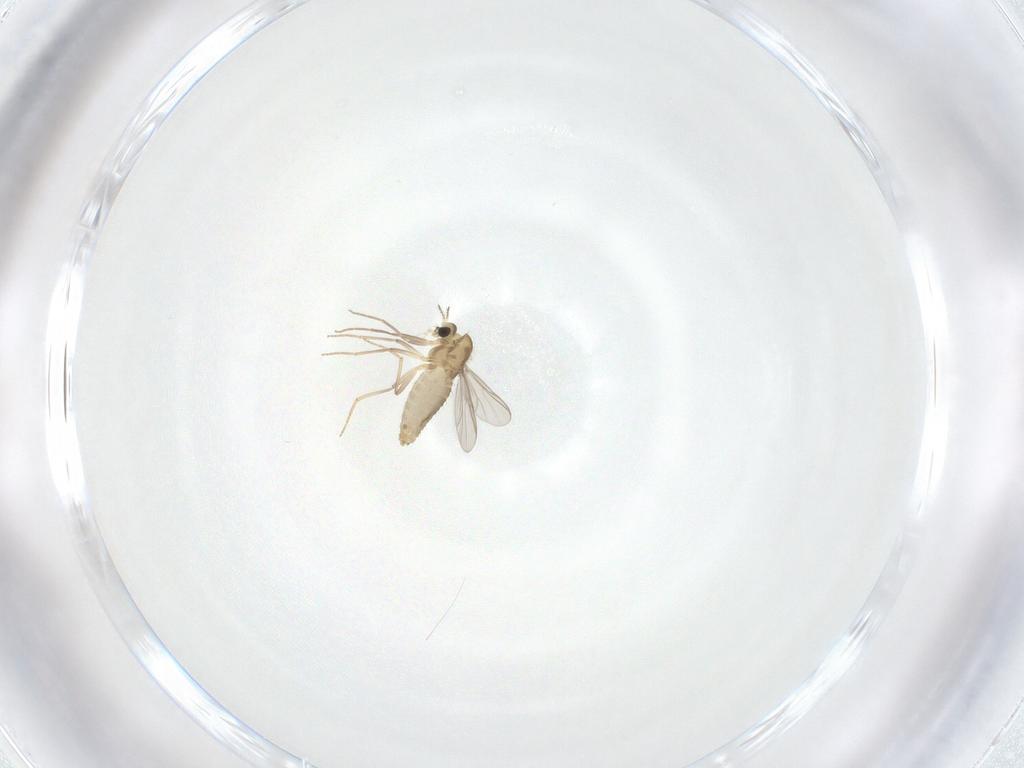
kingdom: Animalia
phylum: Arthropoda
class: Insecta
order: Diptera
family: Chironomidae
